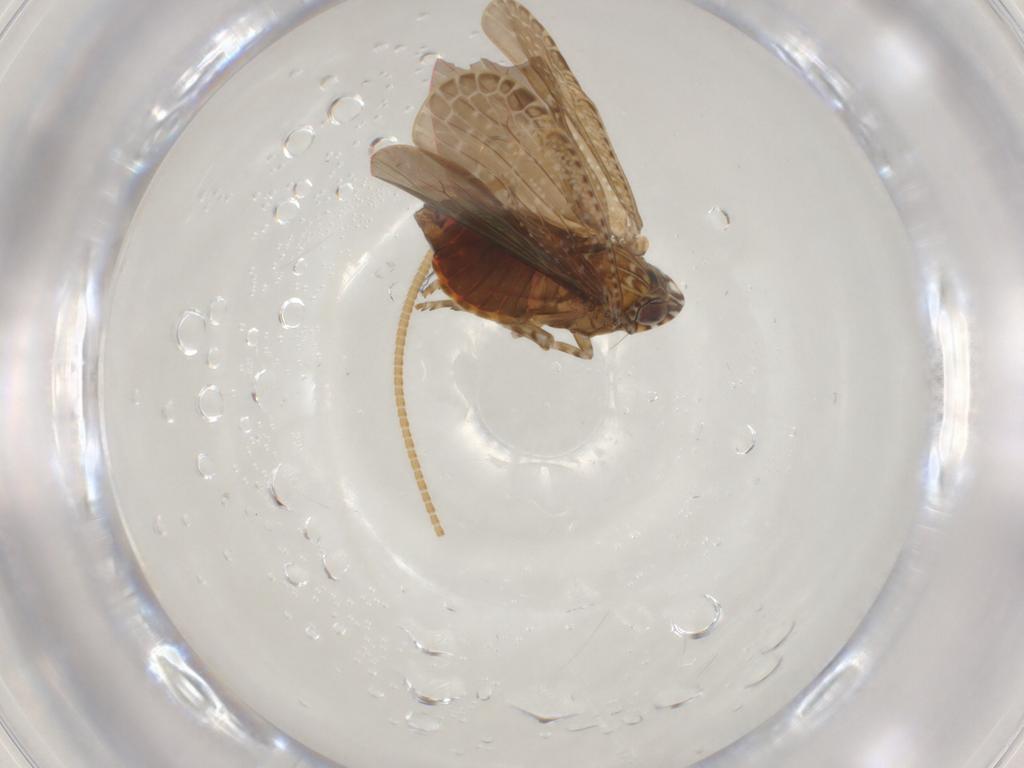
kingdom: Animalia
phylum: Arthropoda
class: Insecta
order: Hemiptera
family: Achilidae
